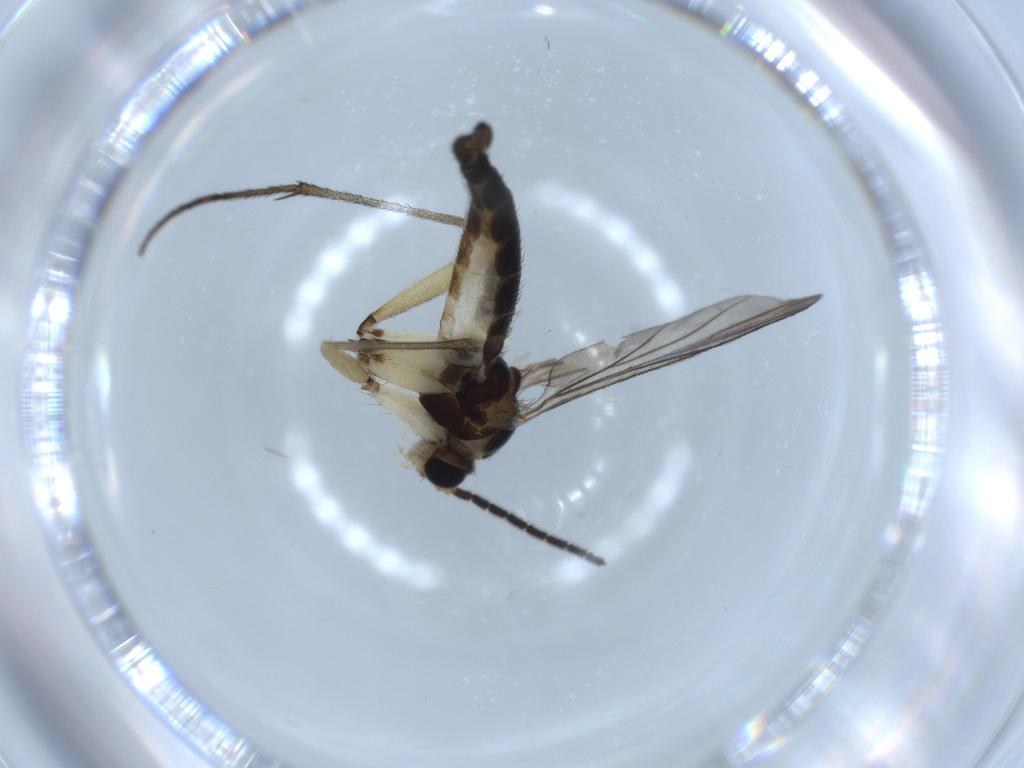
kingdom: Animalia
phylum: Arthropoda
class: Insecta
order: Diptera
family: Sciaridae
